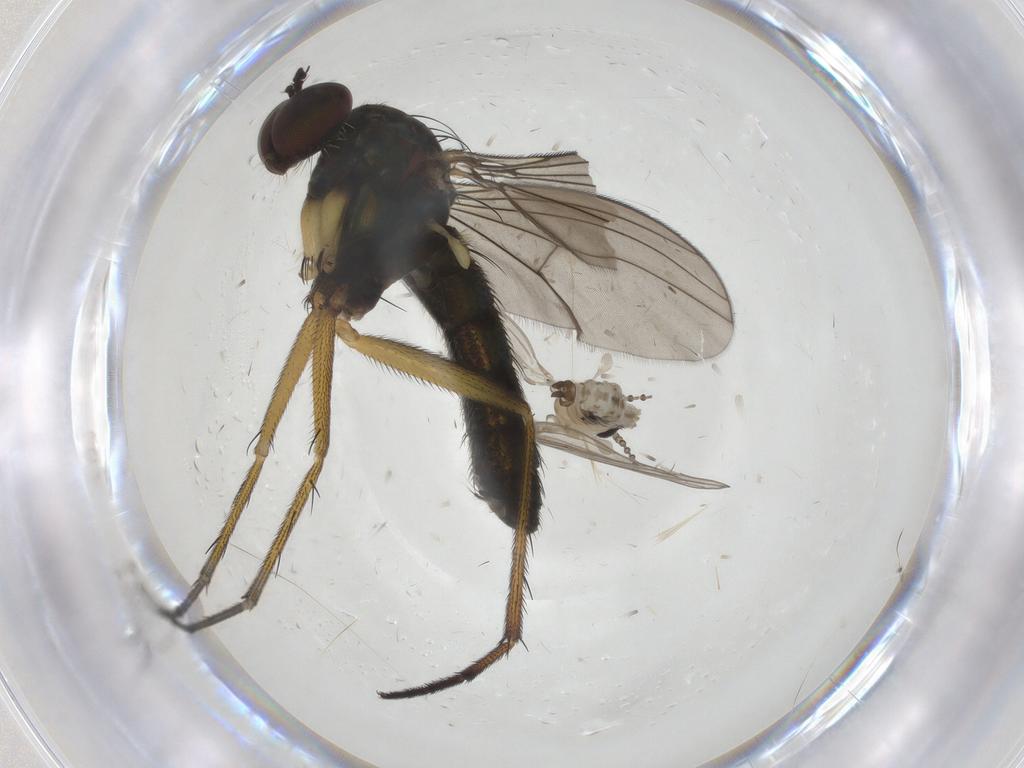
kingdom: Animalia
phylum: Arthropoda
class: Insecta
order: Diptera
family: Dolichopodidae
